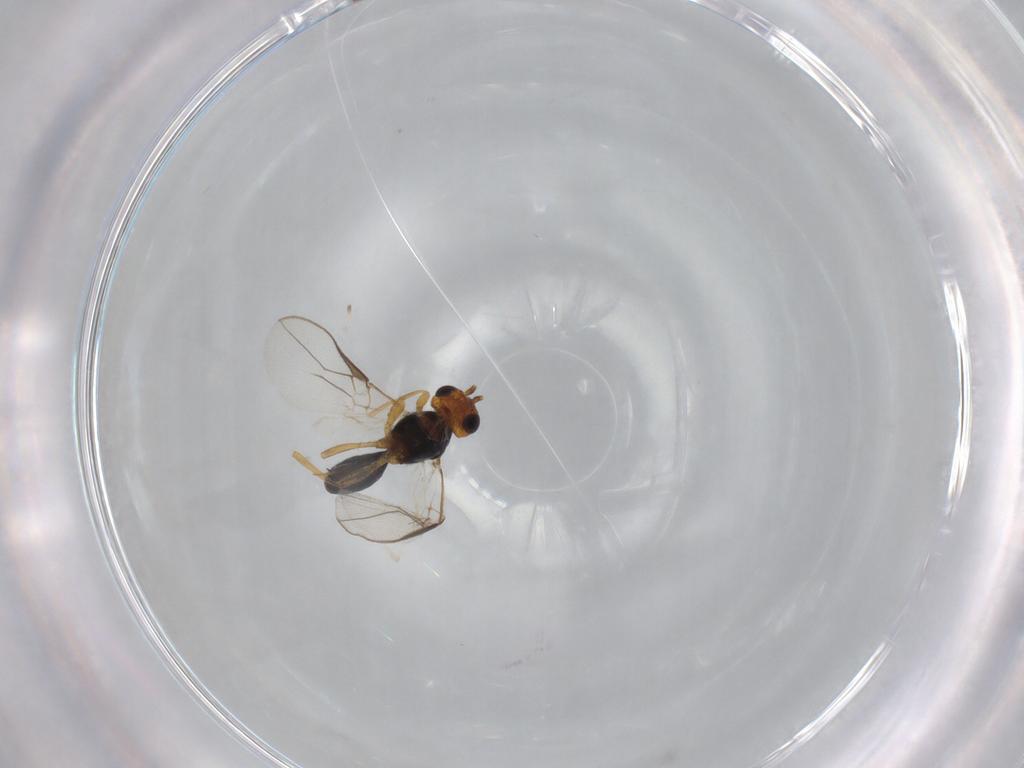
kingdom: Animalia
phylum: Arthropoda
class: Insecta
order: Hymenoptera
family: Braconidae
